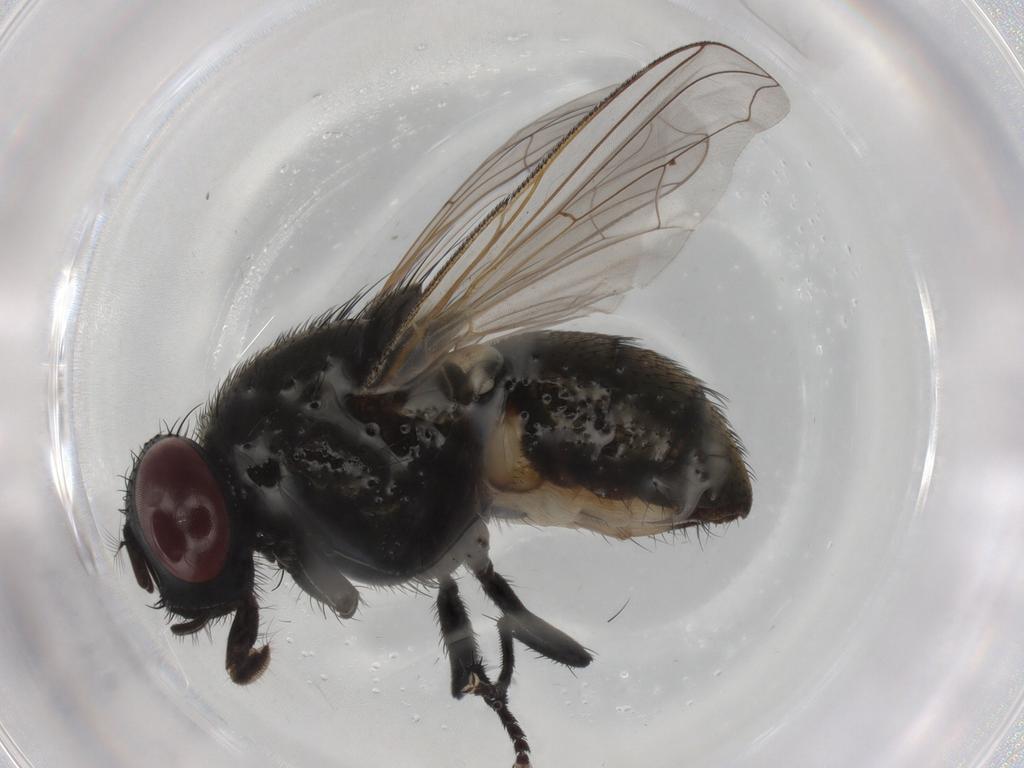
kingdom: Animalia
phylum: Arthropoda
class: Insecta
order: Diptera
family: Muscidae
